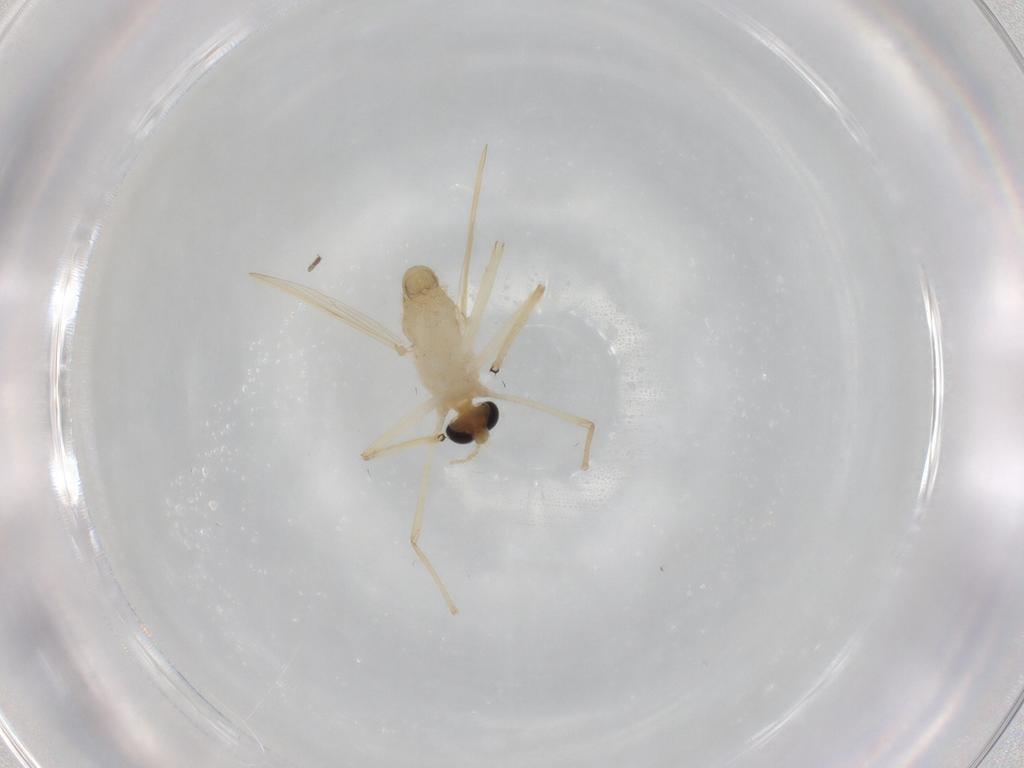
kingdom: Animalia
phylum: Arthropoda
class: Insecta
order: Diptera
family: Chironomidae
